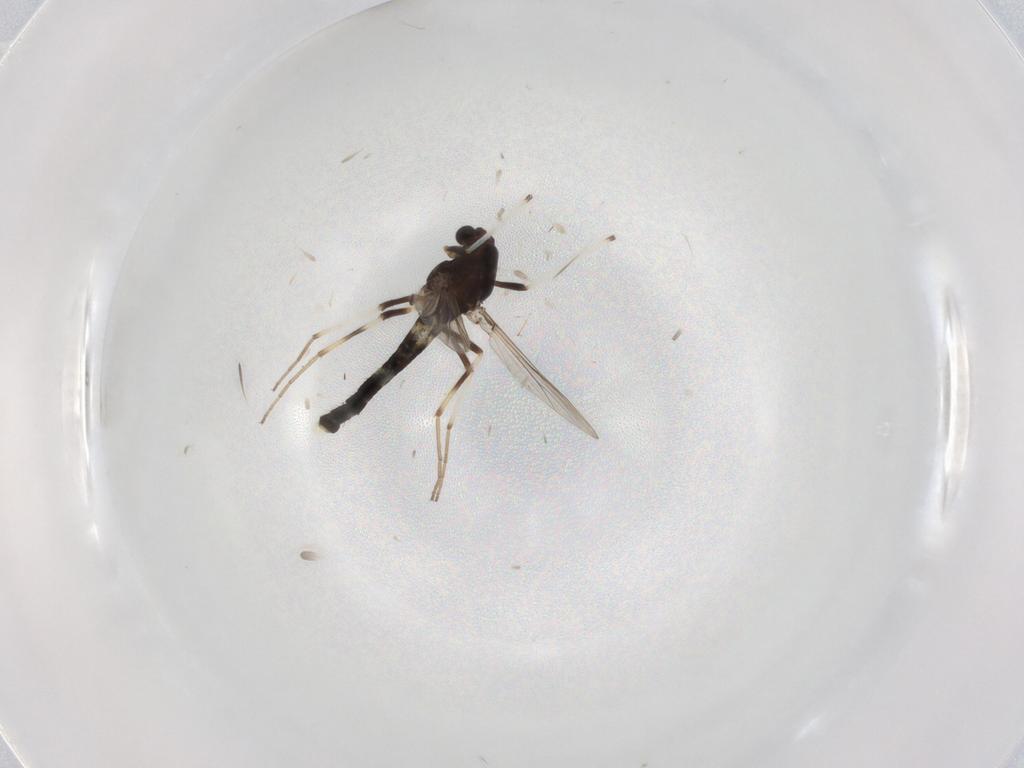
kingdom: Animalia
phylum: Arthropoda
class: Insecta
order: Diptera
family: Chironomidae
